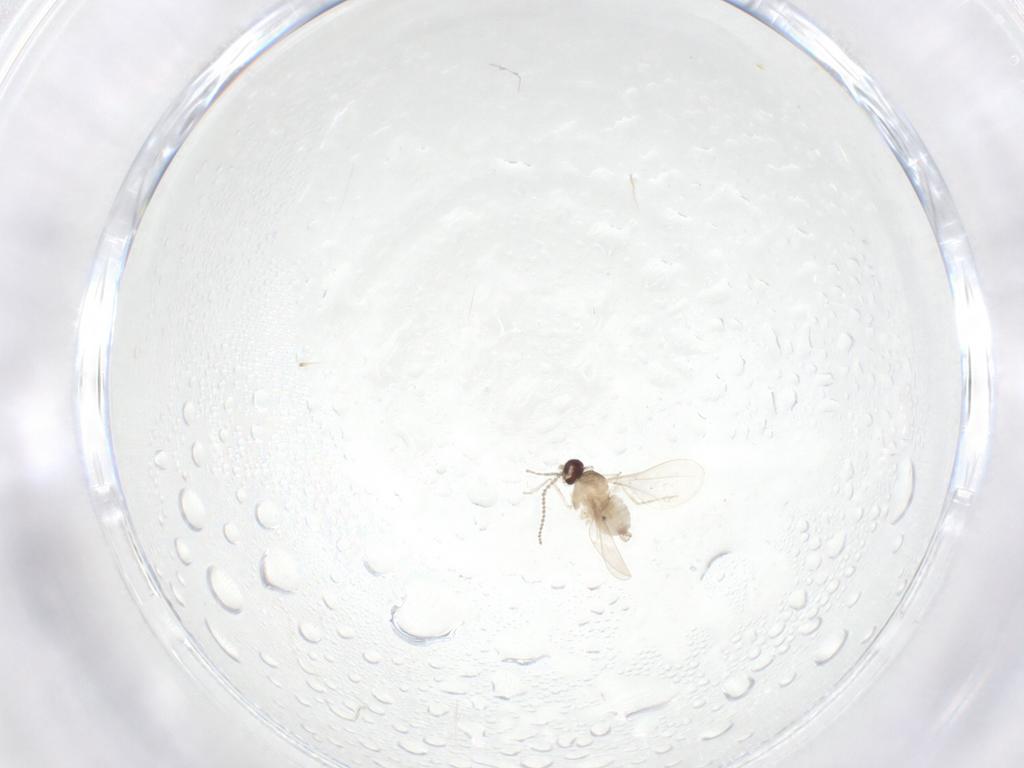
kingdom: Animalia
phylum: Arthropoda
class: Insecta
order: Diptera
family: Cecidomyiidae
